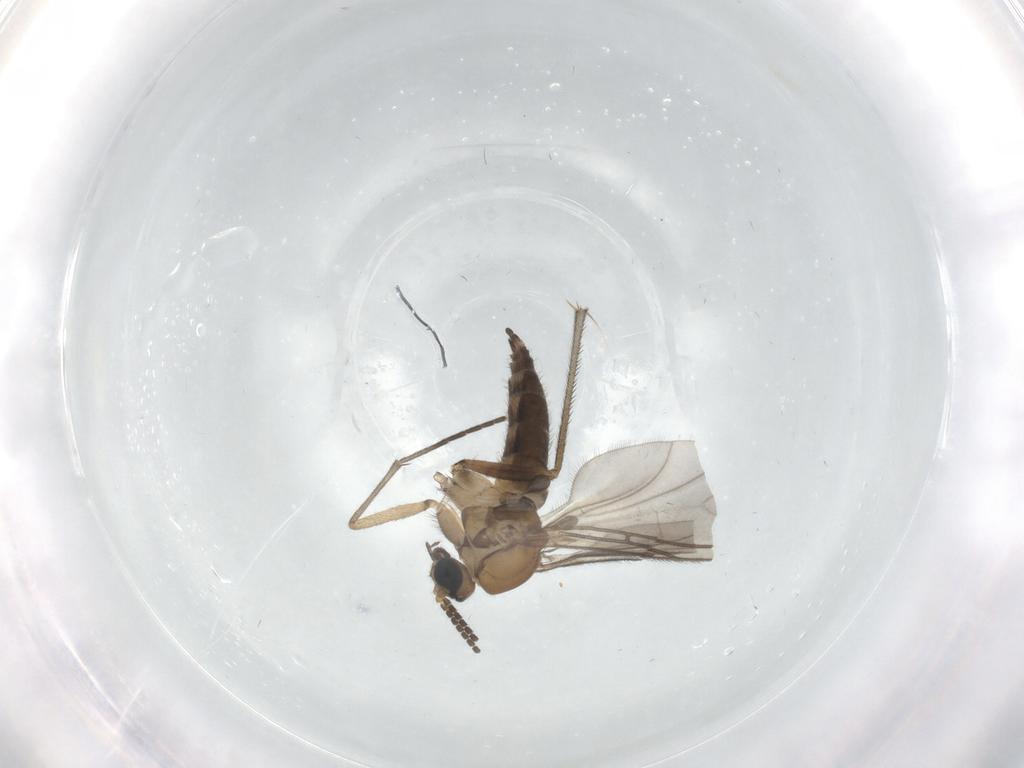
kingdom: Animalia
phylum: Arthropoda
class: Insecta
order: Diptera
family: Sciaridae
